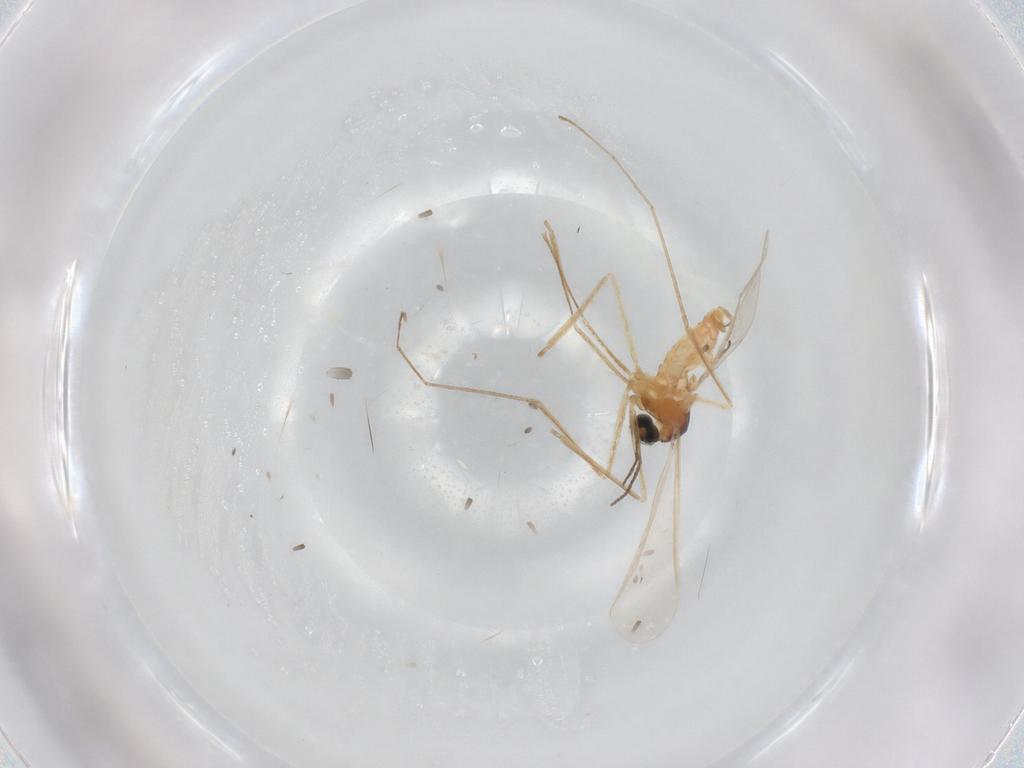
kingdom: Animalia
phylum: Arthropoda
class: Insecta
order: Diptera
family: Cecidomyiidae
